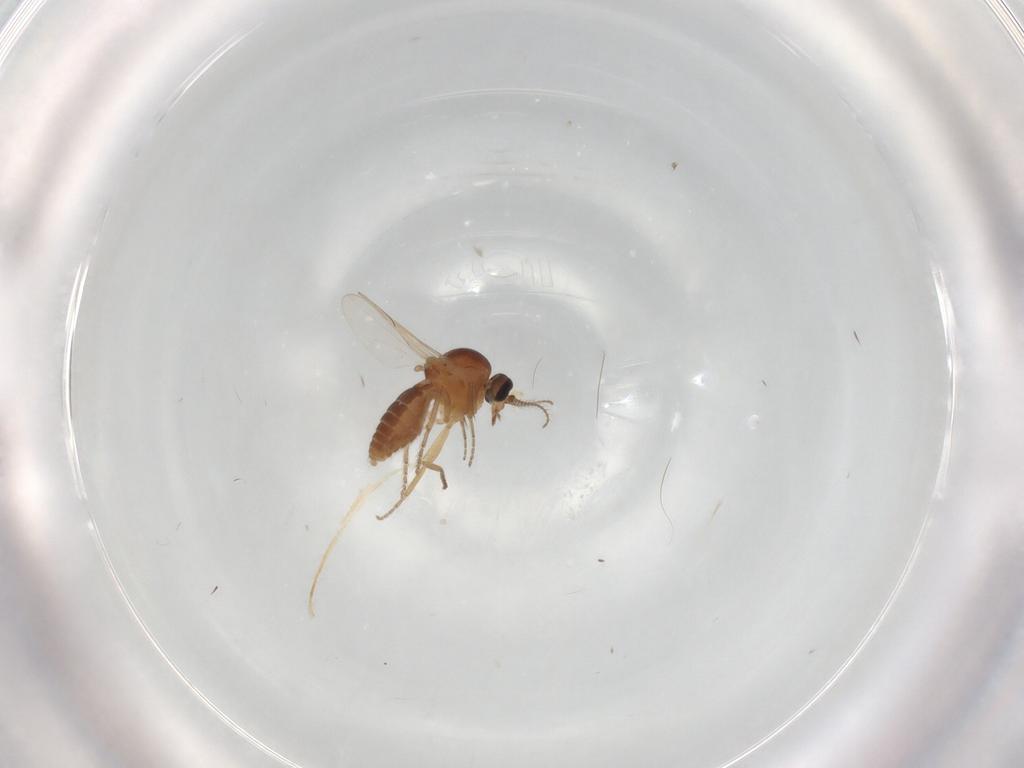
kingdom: Animalia
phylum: Arthropoda
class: Insecta
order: Diptera
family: Ceratopogonidae
